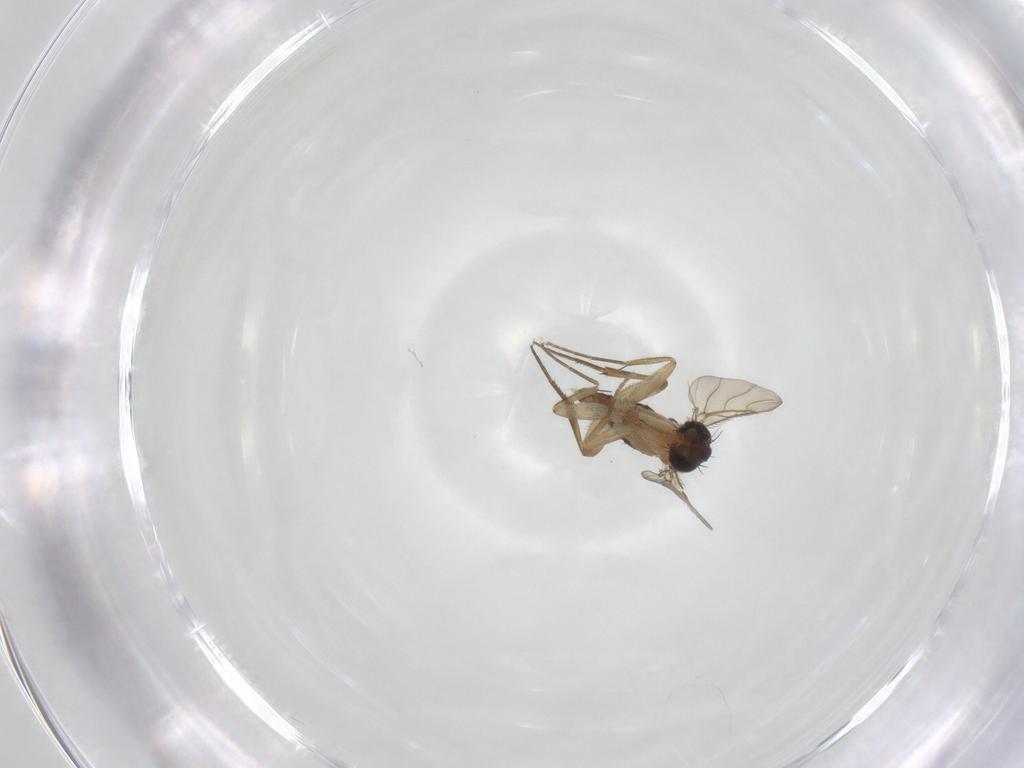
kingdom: Animalia
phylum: Arthropoda
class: Insecta
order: Diptera
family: Phoridae
